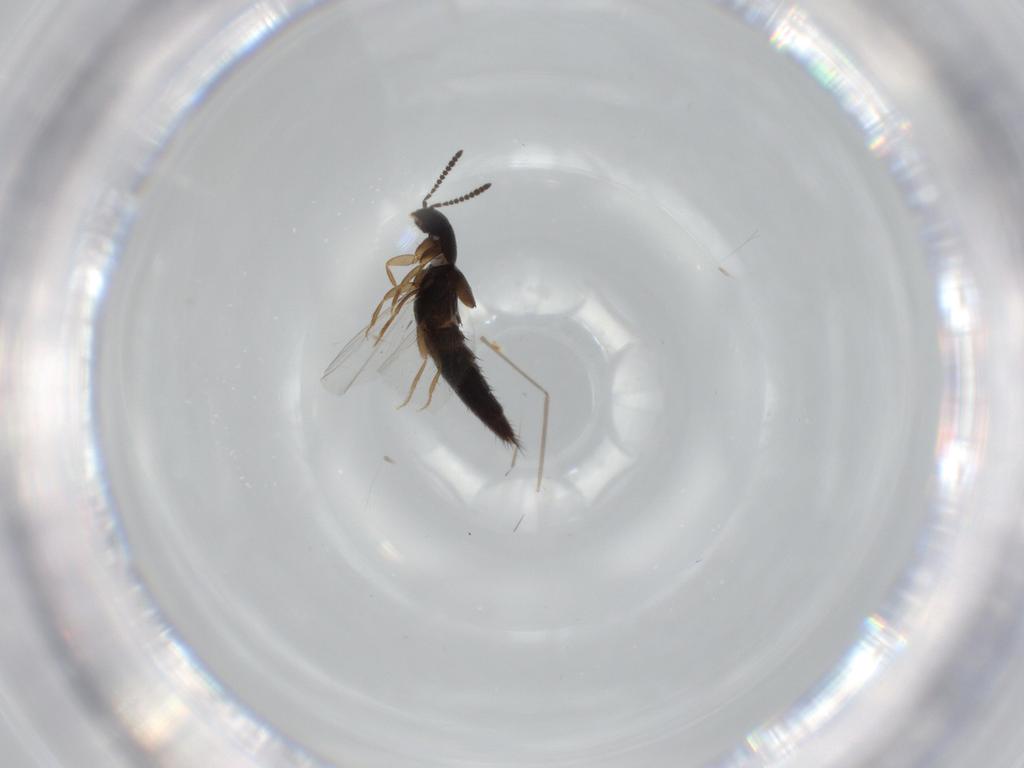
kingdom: Animalia
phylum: Arthropoda
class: Insecta
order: Coleoptera
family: Staphylinidae
